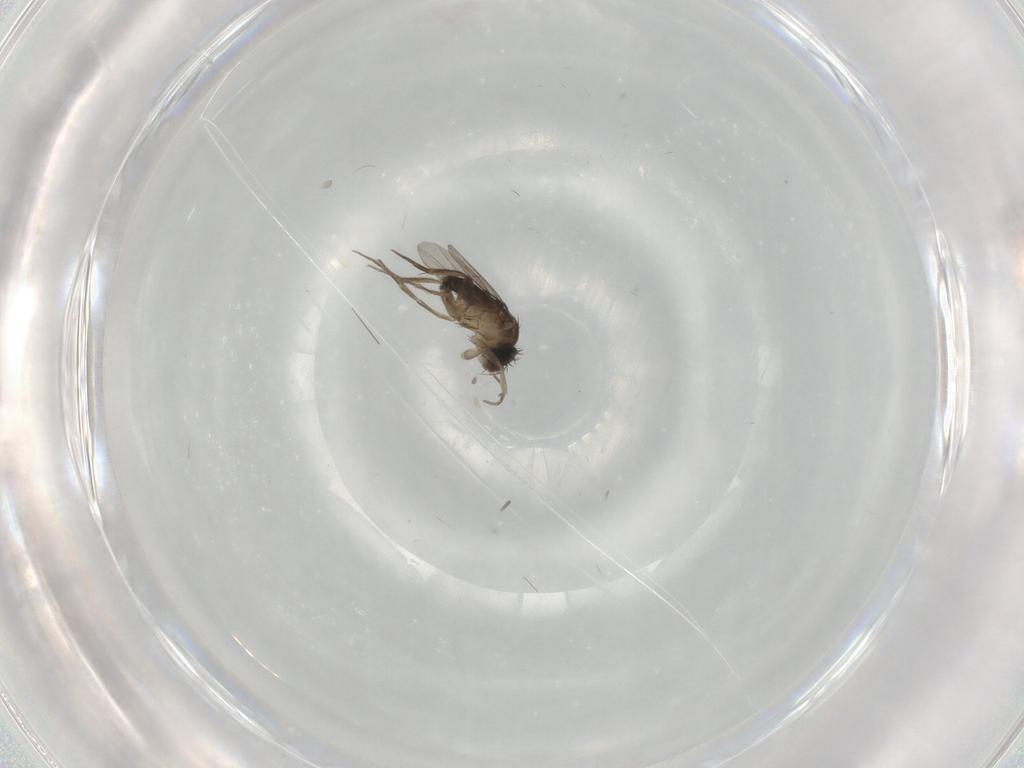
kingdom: Animalia
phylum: Arthropoda
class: Insecta
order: Diptera
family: Phoridae
